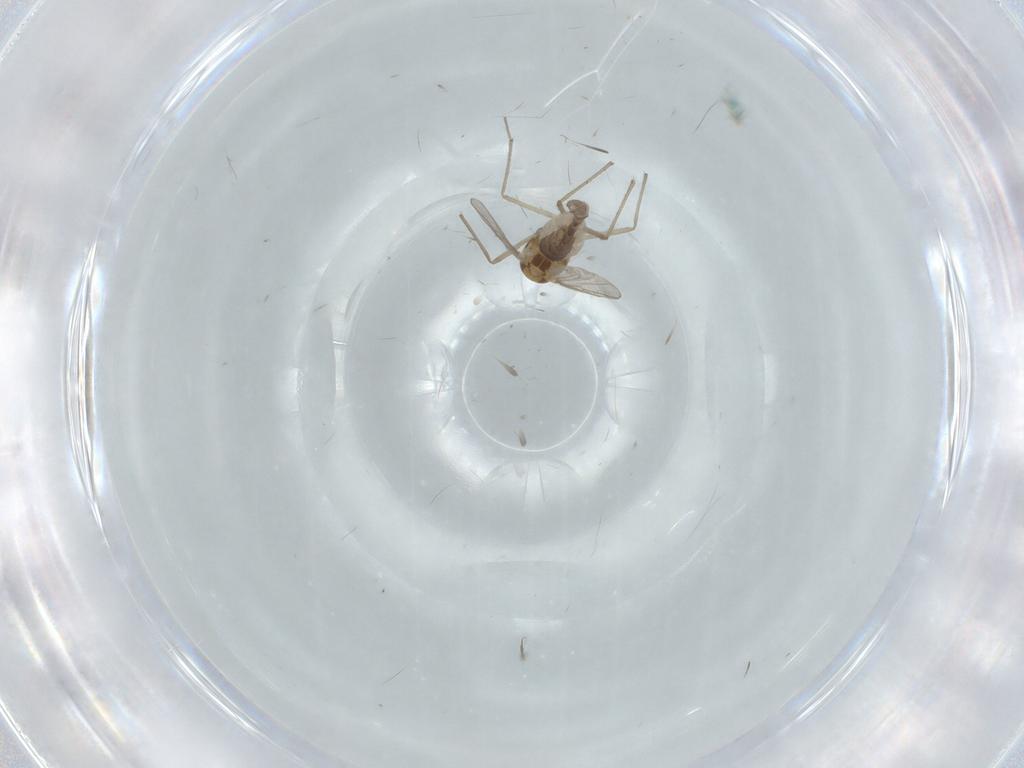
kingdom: Animalia
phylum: Arthropoda
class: Insecta
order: Diptera
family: Chironomidae
